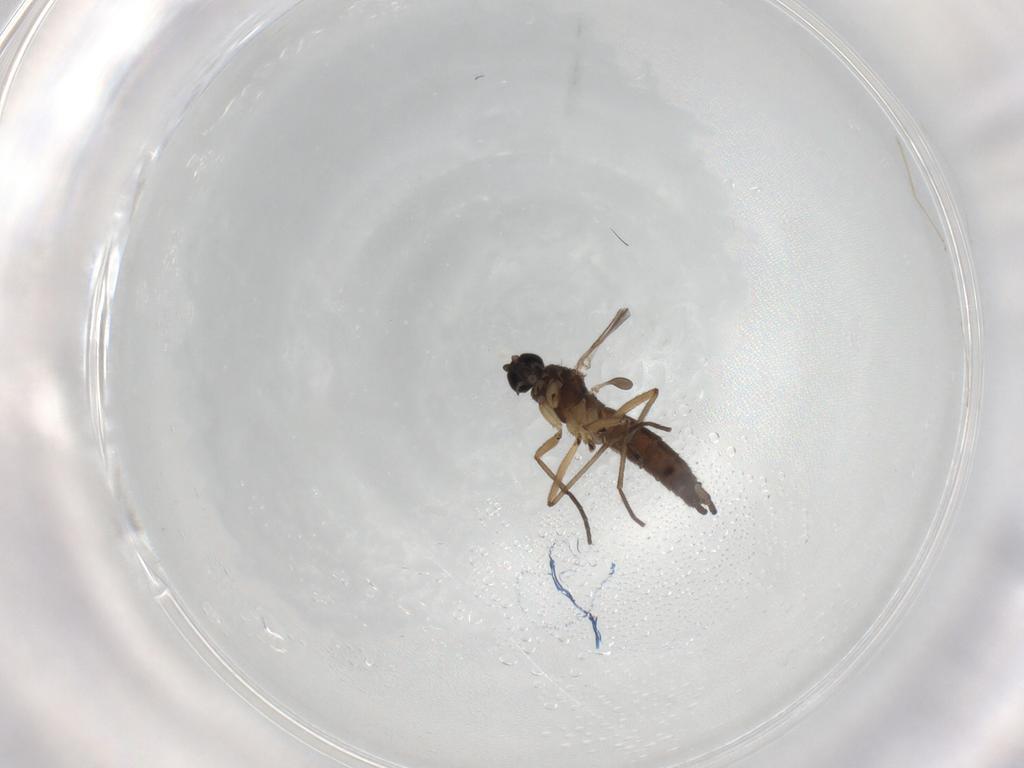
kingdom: Animalia
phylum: Arthropoda
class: Insecta
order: Diptera
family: Sciaridae
